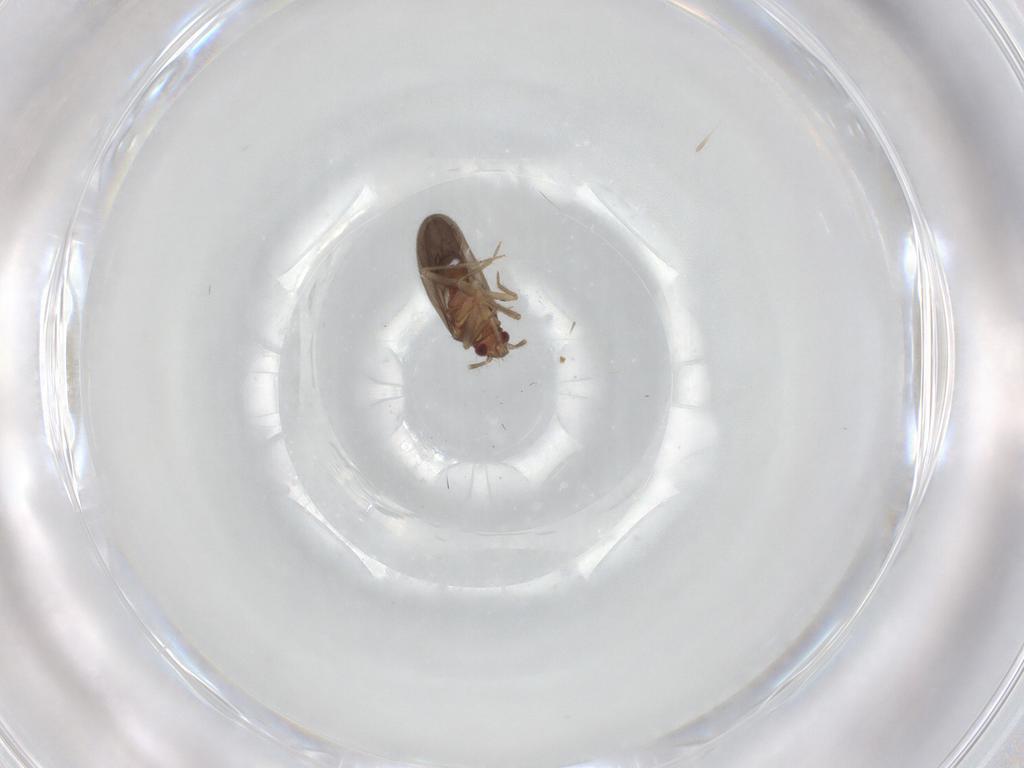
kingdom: Animalia
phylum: Arthropoda
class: Insecta
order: Hemiptera
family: Ceratocombidae
